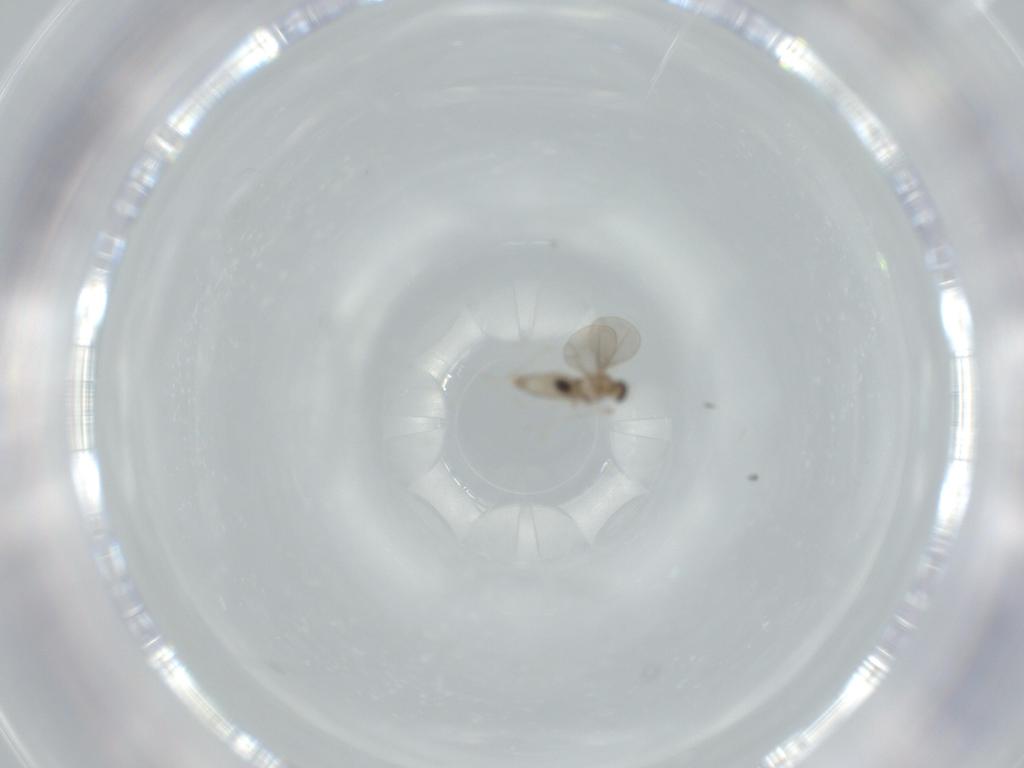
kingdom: Animalia
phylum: Arthropoda
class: Insecta
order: Diptera
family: Cecidomyiidae
